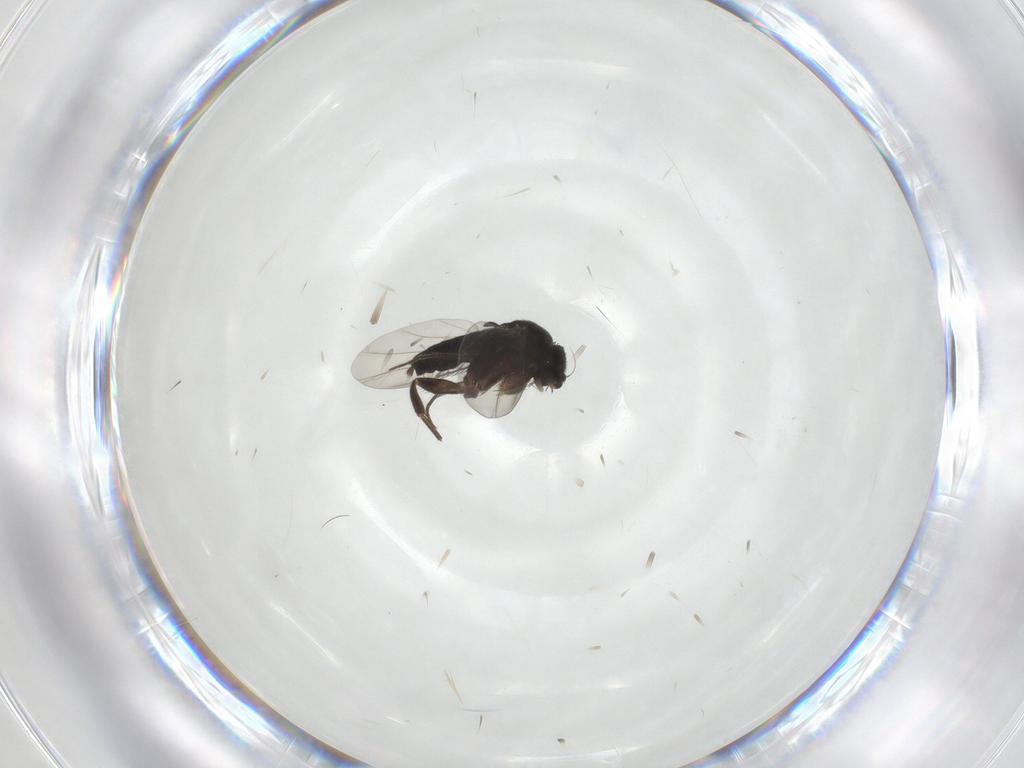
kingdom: Animalia
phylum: Arthropoda
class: Insecta
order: Diptera
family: Phoridae
